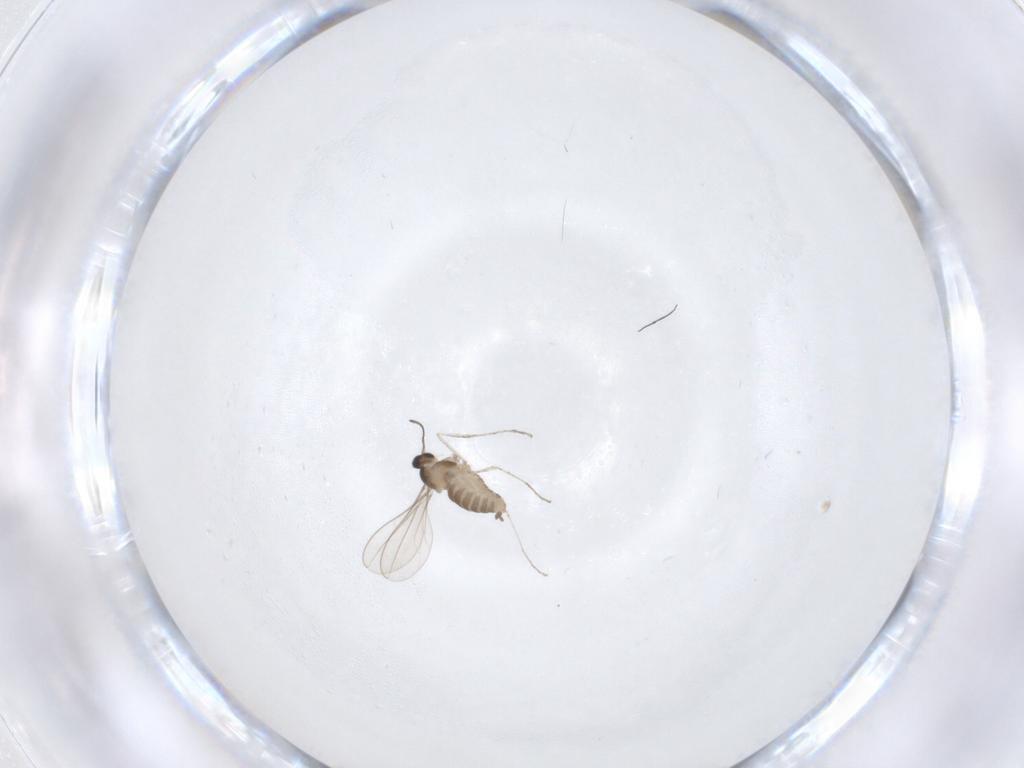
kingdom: Animalia
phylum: Arthropoda
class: Insecta
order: Diptera
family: Cecidomyiidae
